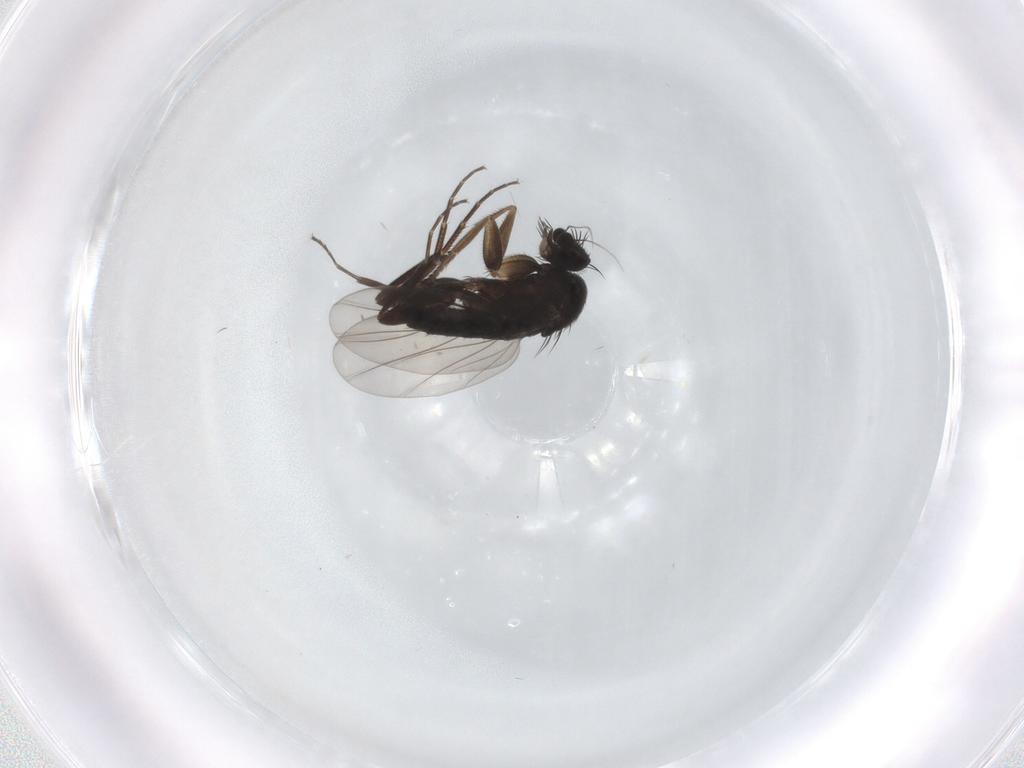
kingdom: Animalia
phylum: Arthropoda
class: Insecta
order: Diptera
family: Phoridae
